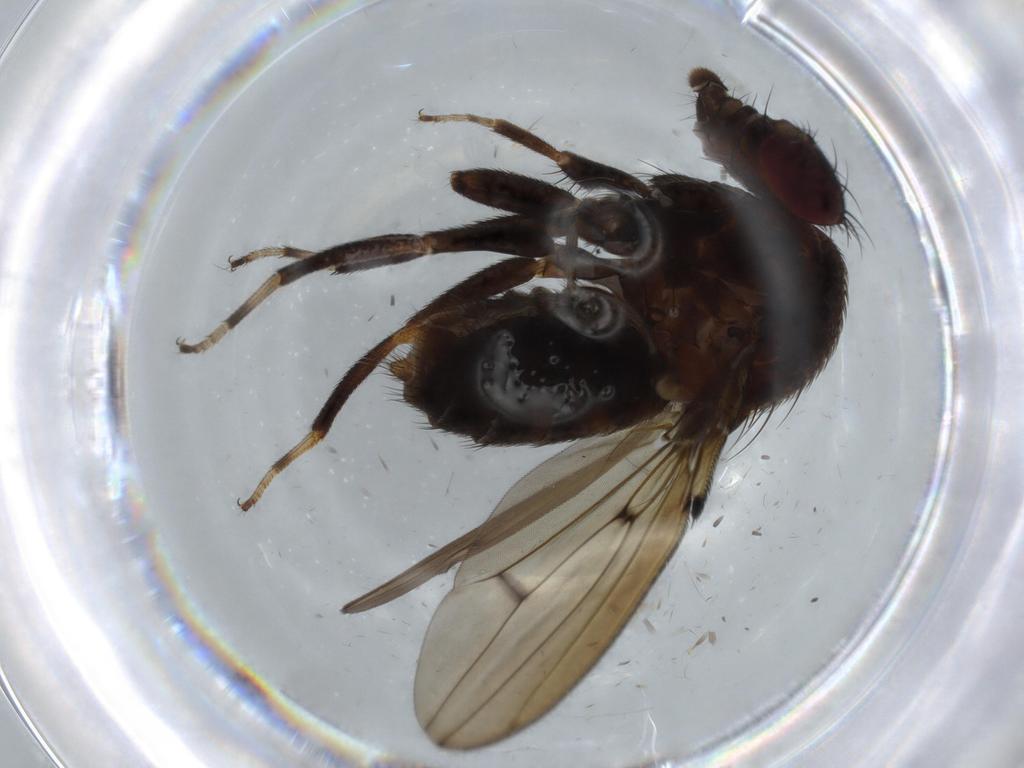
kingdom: Animalia
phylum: Arthropoda
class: Insecta
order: Diptera
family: Drosophilidae
